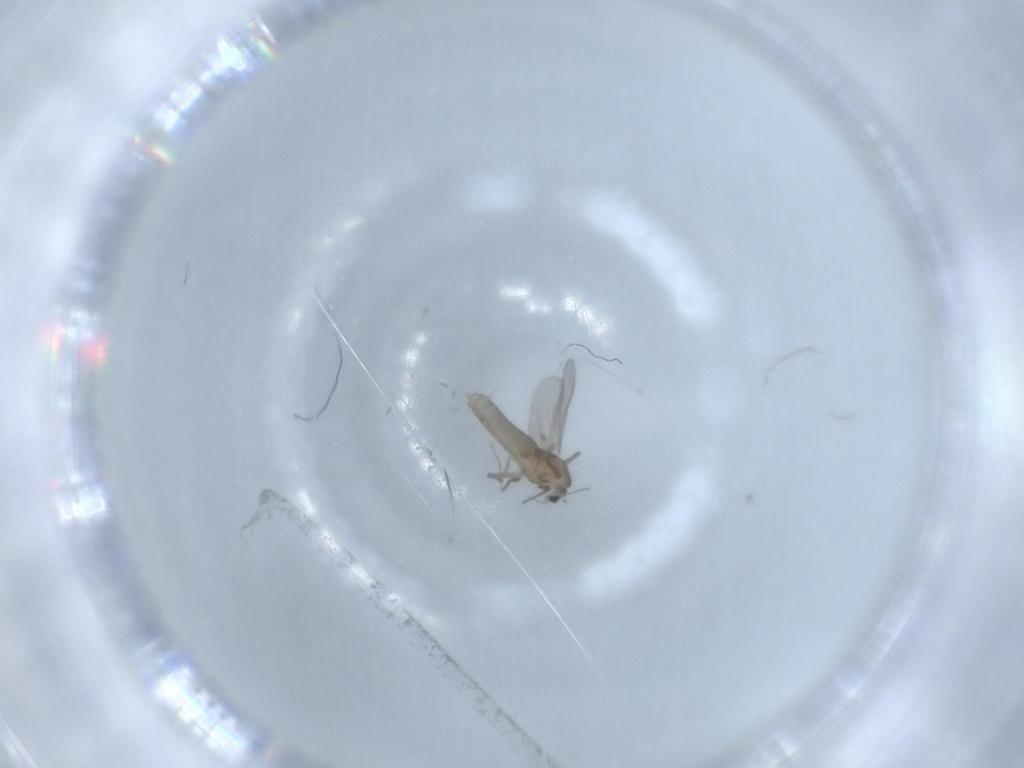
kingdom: Animalia
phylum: Arthropoda
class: Insecta
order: Diptera
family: Chironomidae
